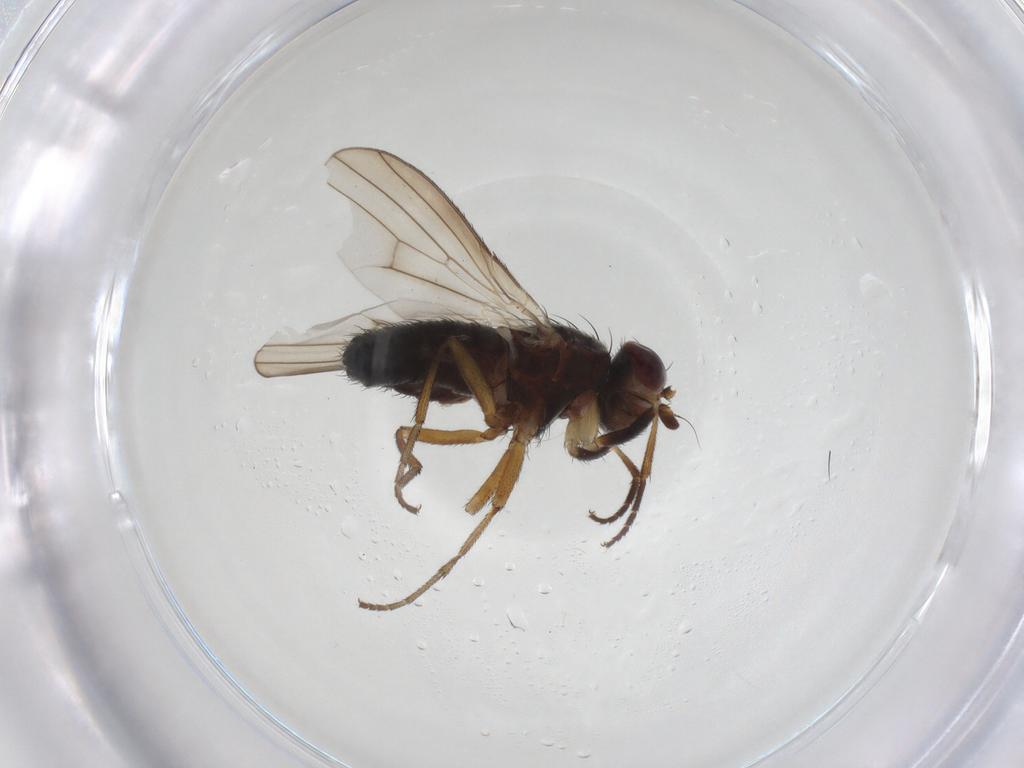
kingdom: Animalia
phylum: Arthropoda
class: Insecta
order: Diptera
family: Heleomyzidae
